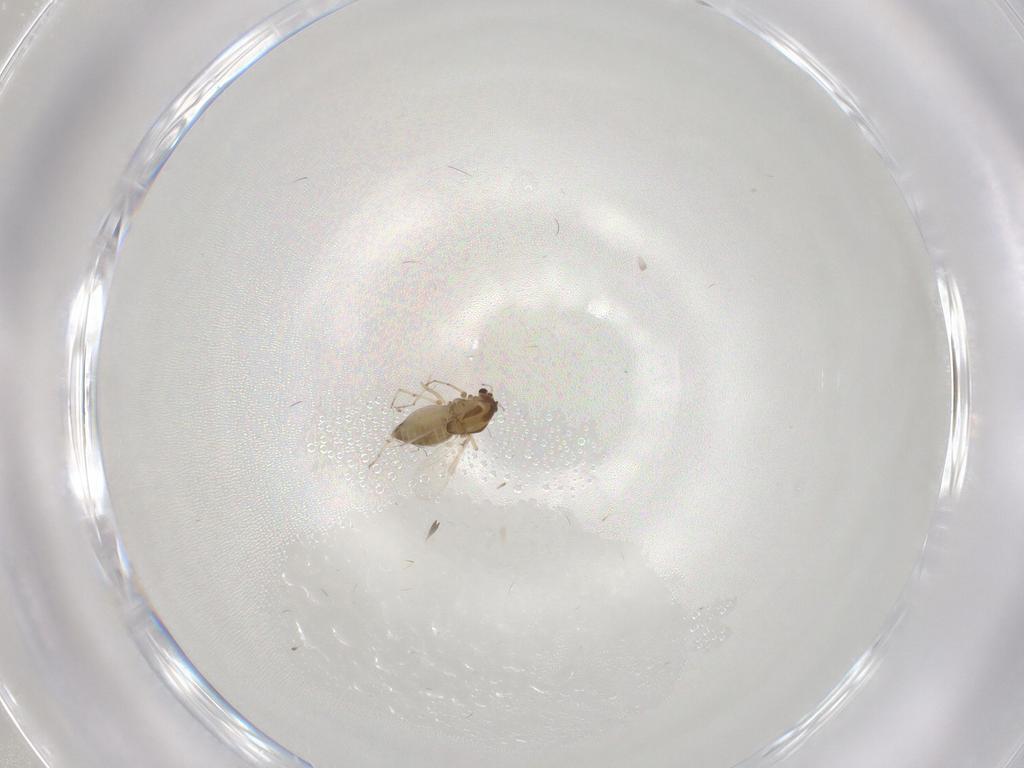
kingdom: Animalia
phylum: Arthropoda
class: Insecta
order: Diptera
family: Chironomidae
